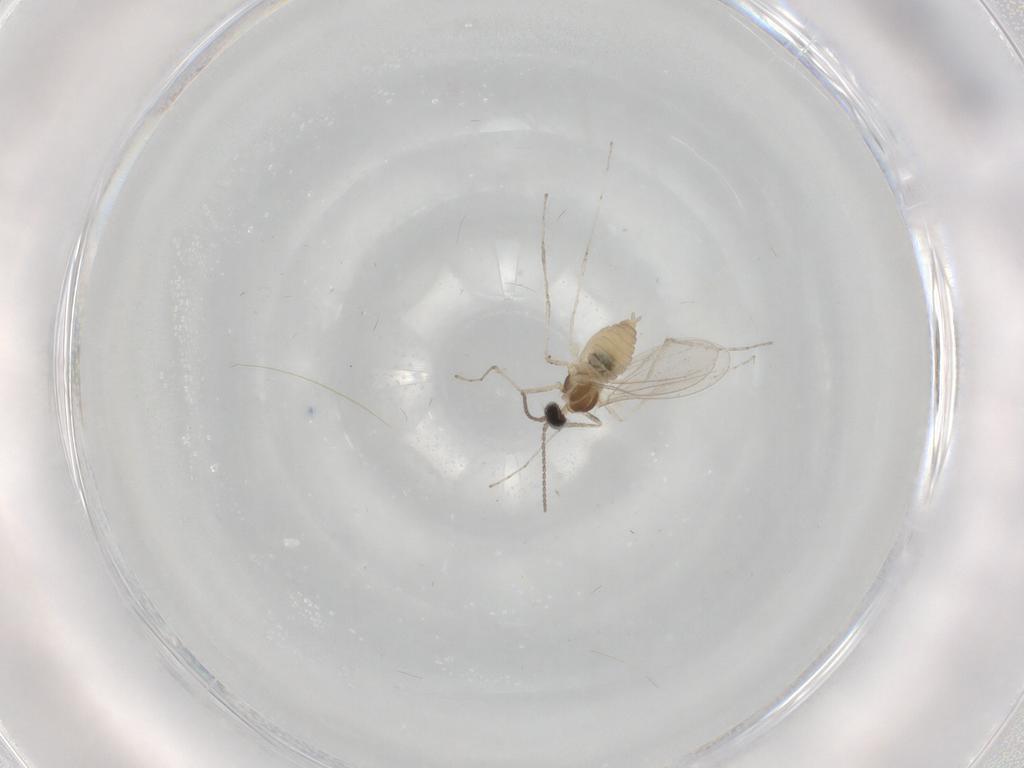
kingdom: Animalia
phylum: Arthropoda
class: Insecta
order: Diptera
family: Cecidomyiidae
